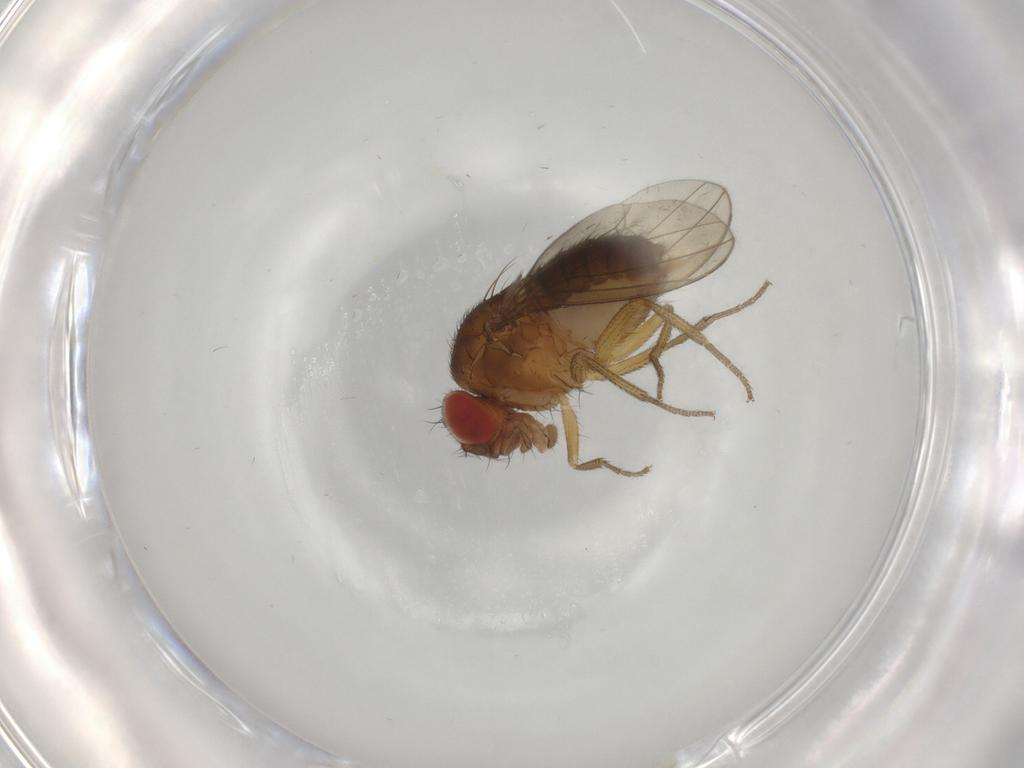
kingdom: Animalia
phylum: Arthropoda
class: Insecta
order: Diptera
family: Drosophilidae
